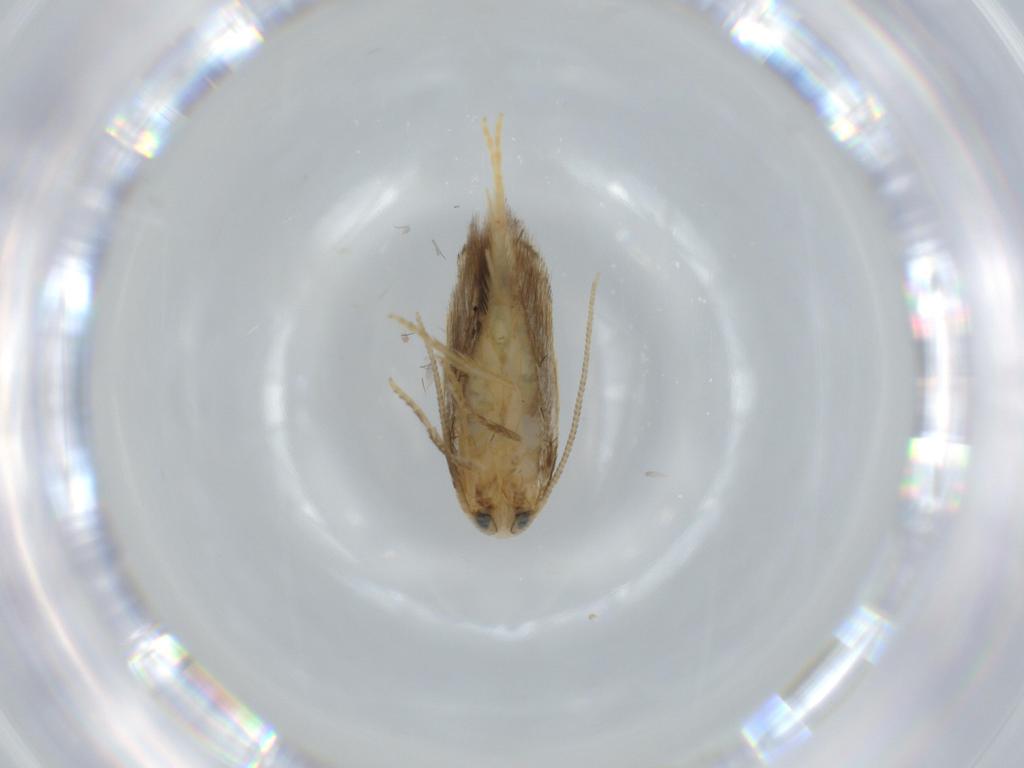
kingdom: Animalia
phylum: Arthropoda
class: Insecta
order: Lepidoptera
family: Opostegidae
